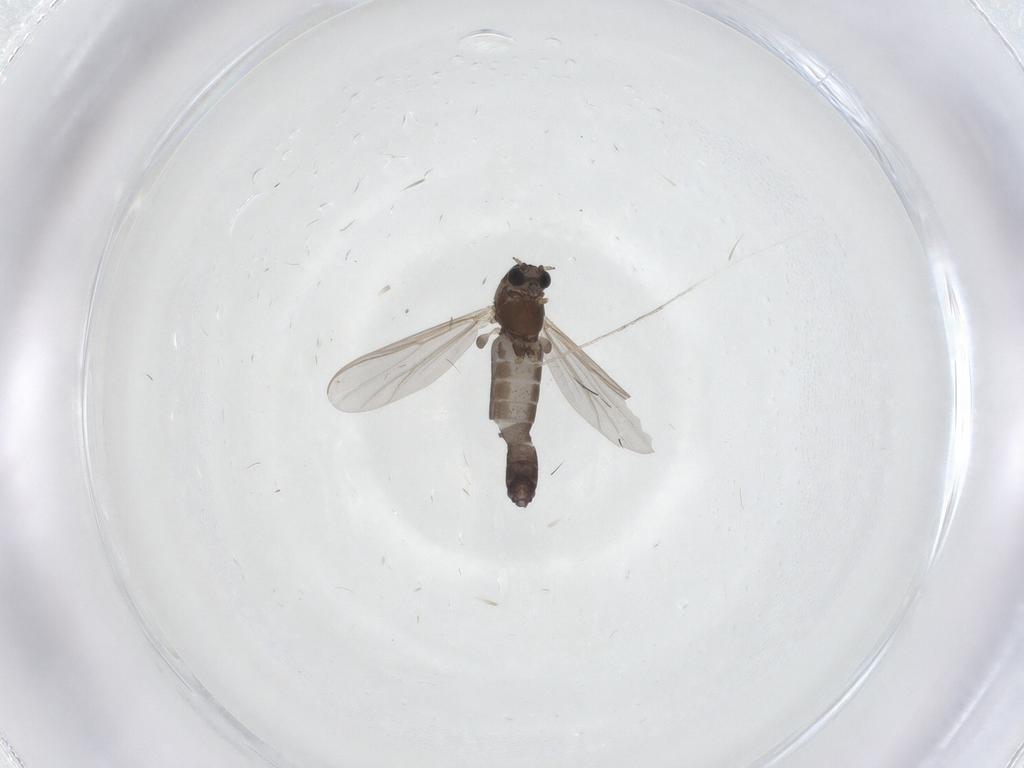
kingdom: Animalia
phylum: Arthropoda
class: Insecta
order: Diptera
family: Chironomidae
